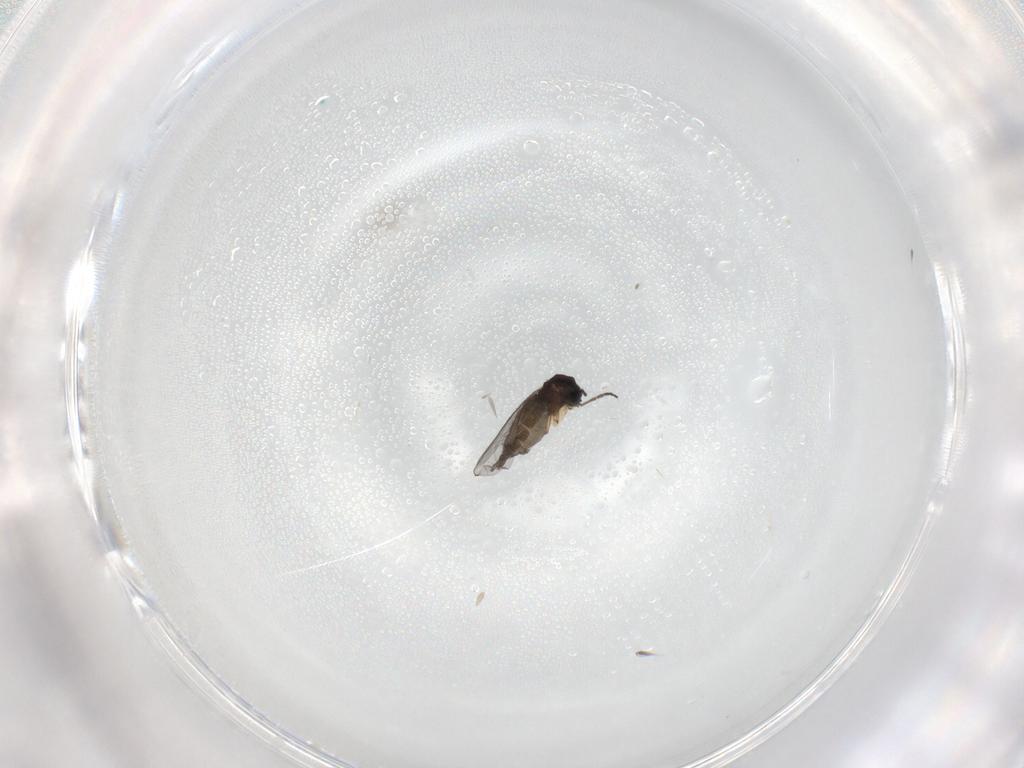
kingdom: Animalia
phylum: Arthropoda
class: Insecta
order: Diptera
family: Sciaridae
